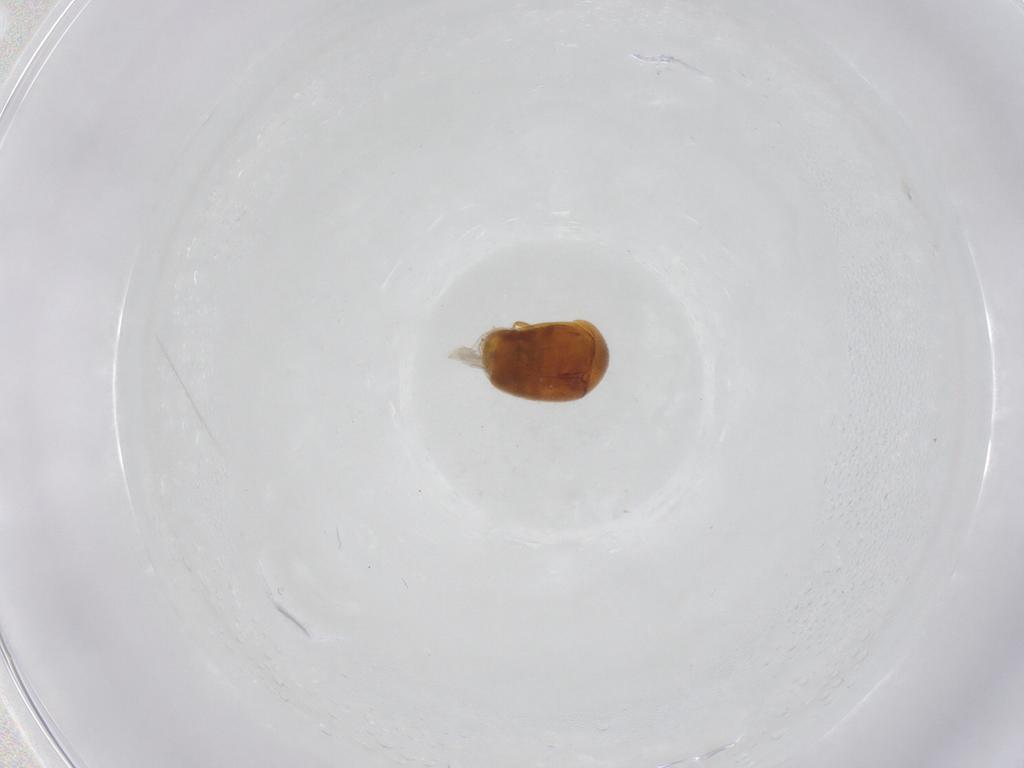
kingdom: Animalia
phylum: Arthropoda
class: Insecta
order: Coleoptera
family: Corylophidae
